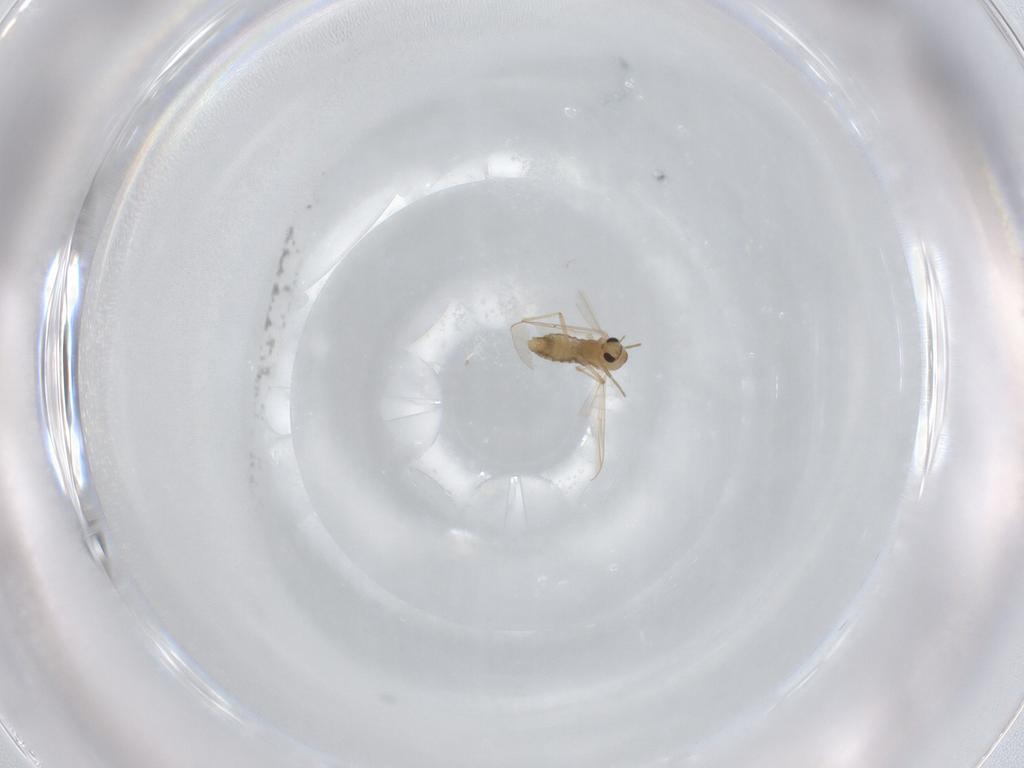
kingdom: Animalia
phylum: Arthropoda
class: Insecta
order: Diptera
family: Chironomidae
